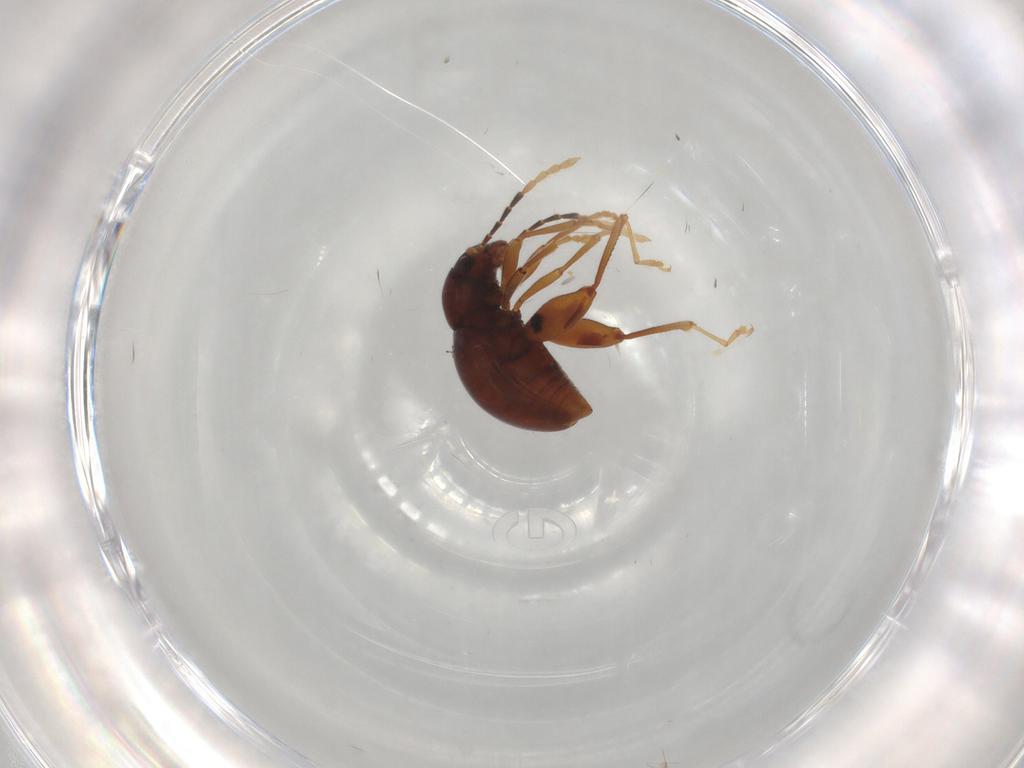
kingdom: Animalia
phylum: Arthropoda
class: Insecta
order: Coleoptera
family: Chrysomelidae
